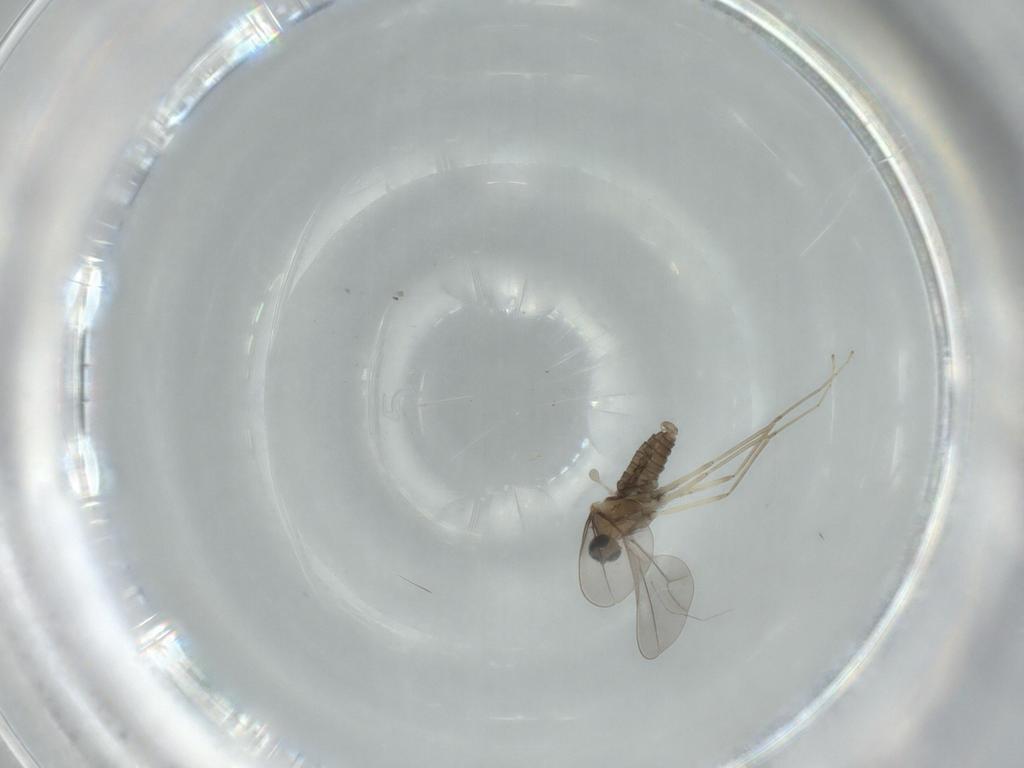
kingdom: Animalia
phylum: Arthropoda
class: Insecta
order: Diptera
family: Cecidomyiidae
